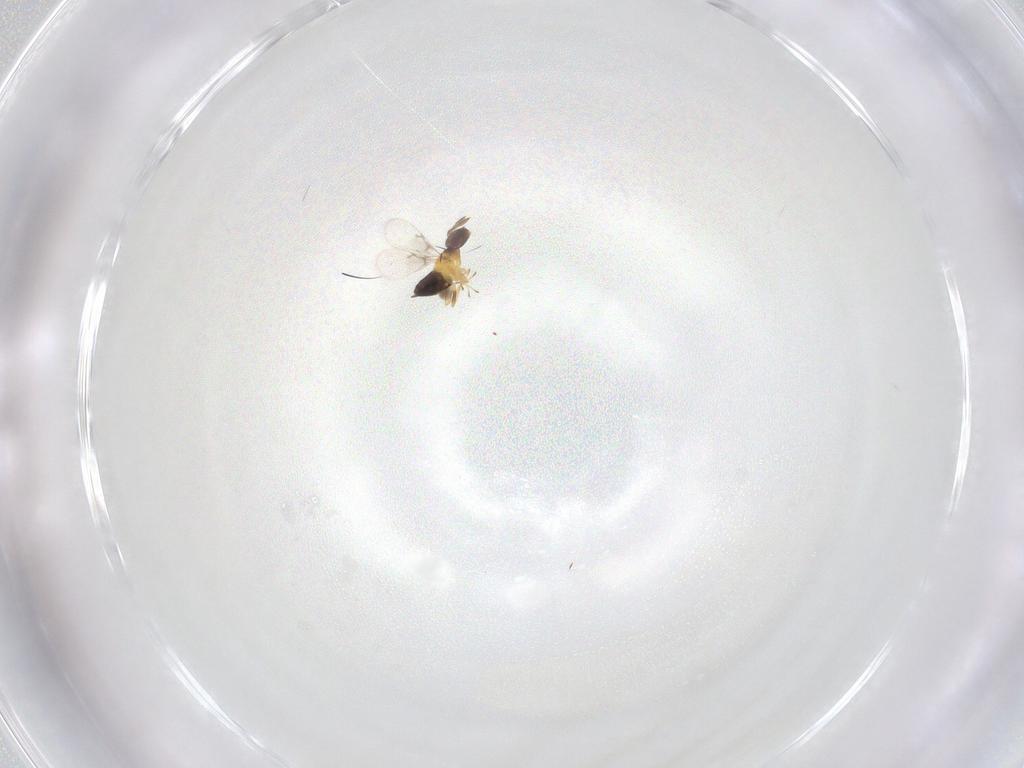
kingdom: Animalia
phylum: Arthropoda
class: Insecta
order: Hymenoptera
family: Trichogrammatidae
